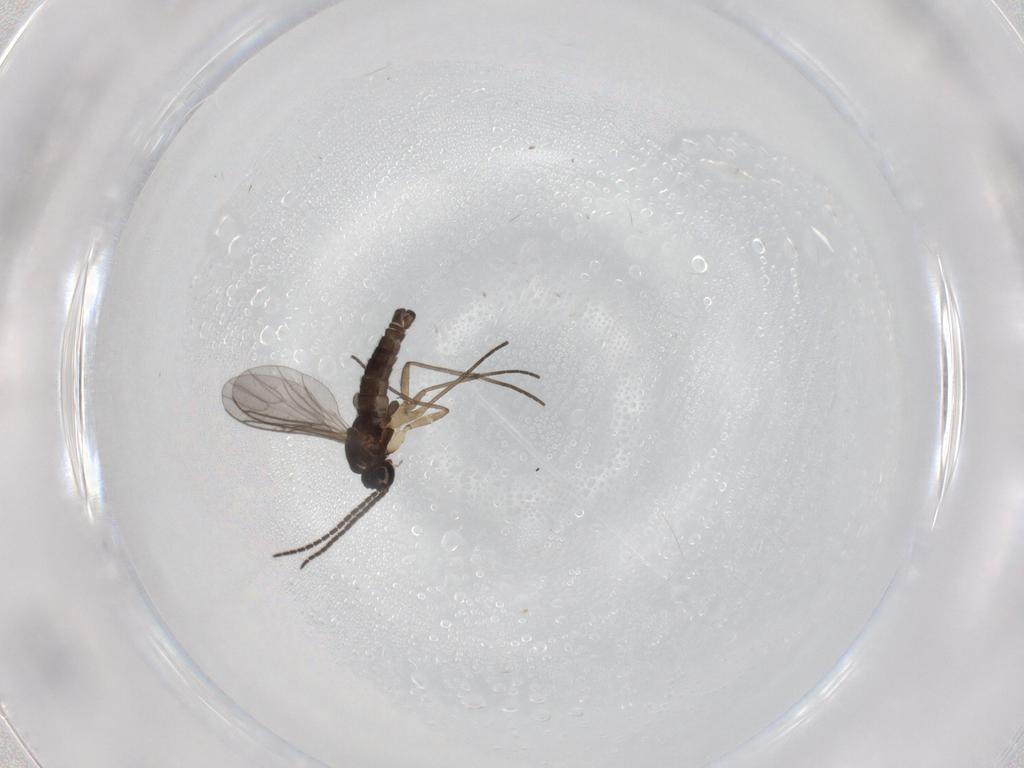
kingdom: Animalia
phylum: Arthropoda
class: Insecta
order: Diptera
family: Sciaridae
